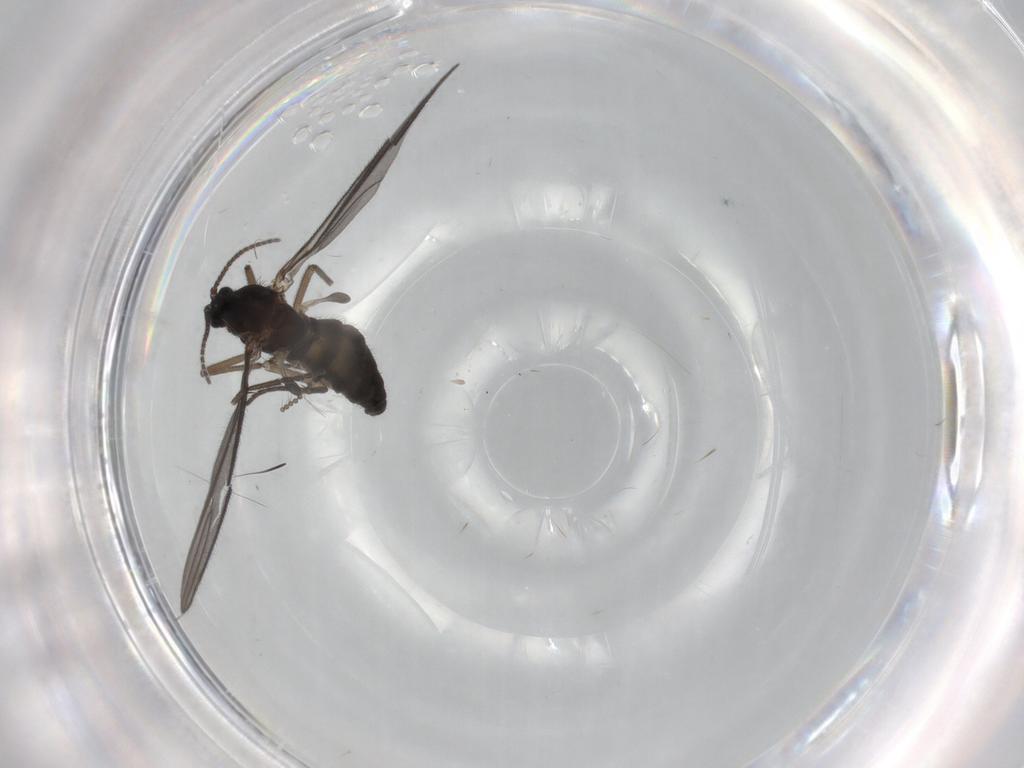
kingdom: Animalia
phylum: Arthropoda
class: Insecta
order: Diptera
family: Sciaridae
